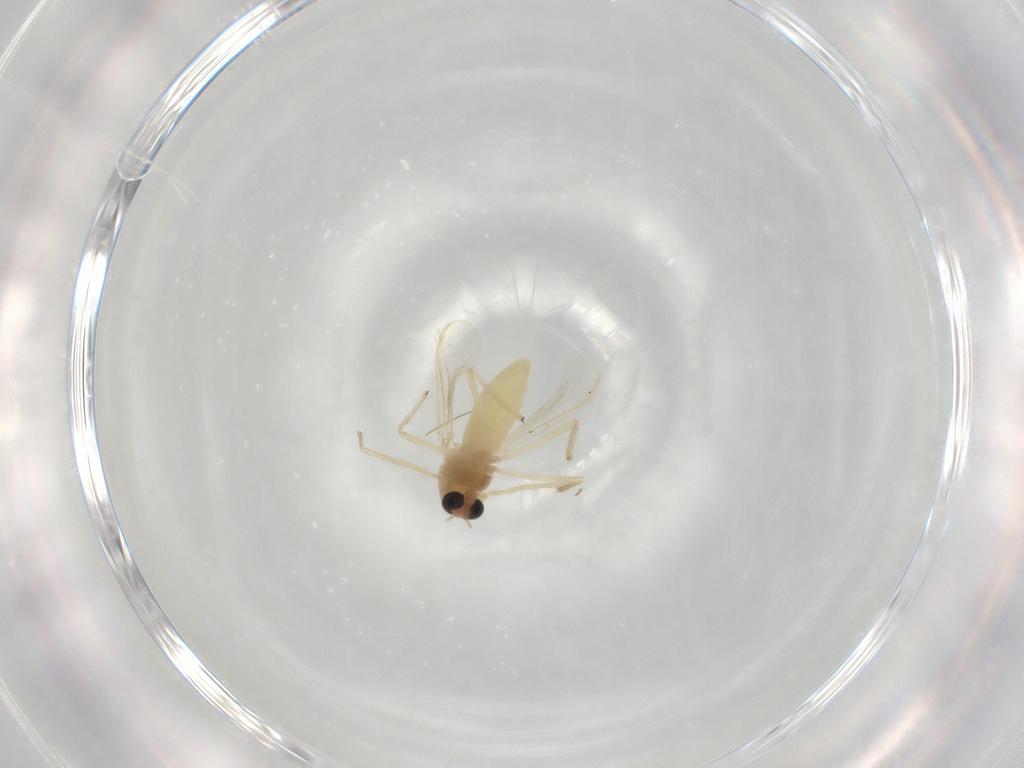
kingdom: Animalia
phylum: Arthropoda
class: Insecta
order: Diptera
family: Chironomidae
